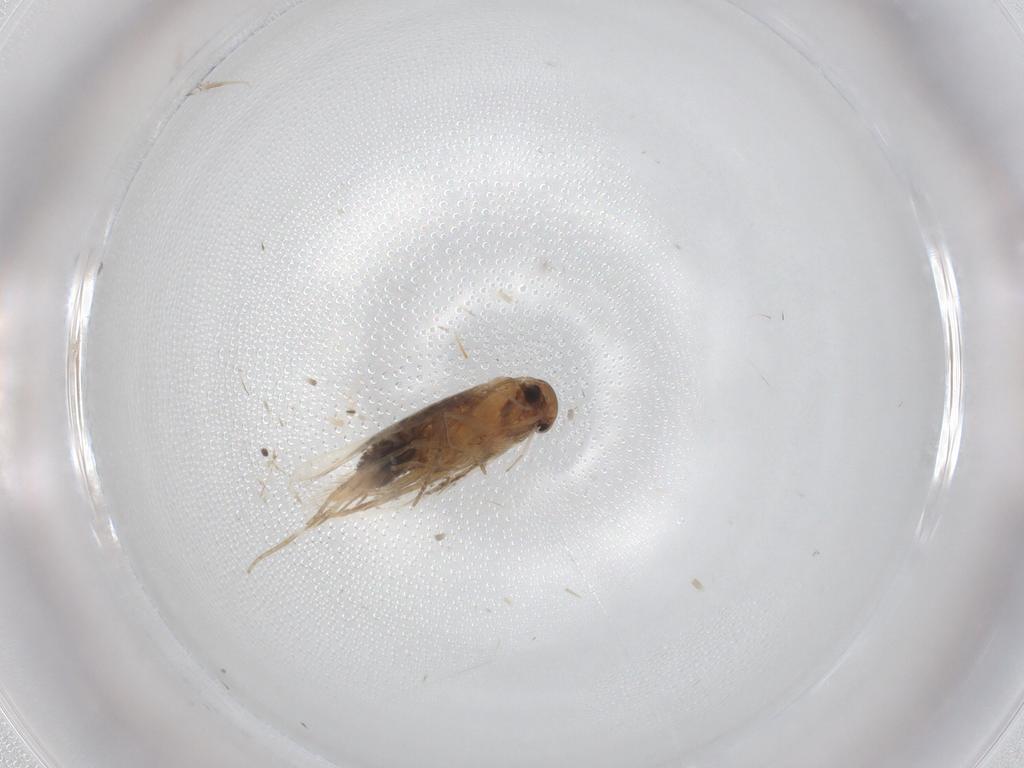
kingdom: Animalia
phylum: Arthropoda
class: Insecta
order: Lepidoptera
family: Elachistidae
